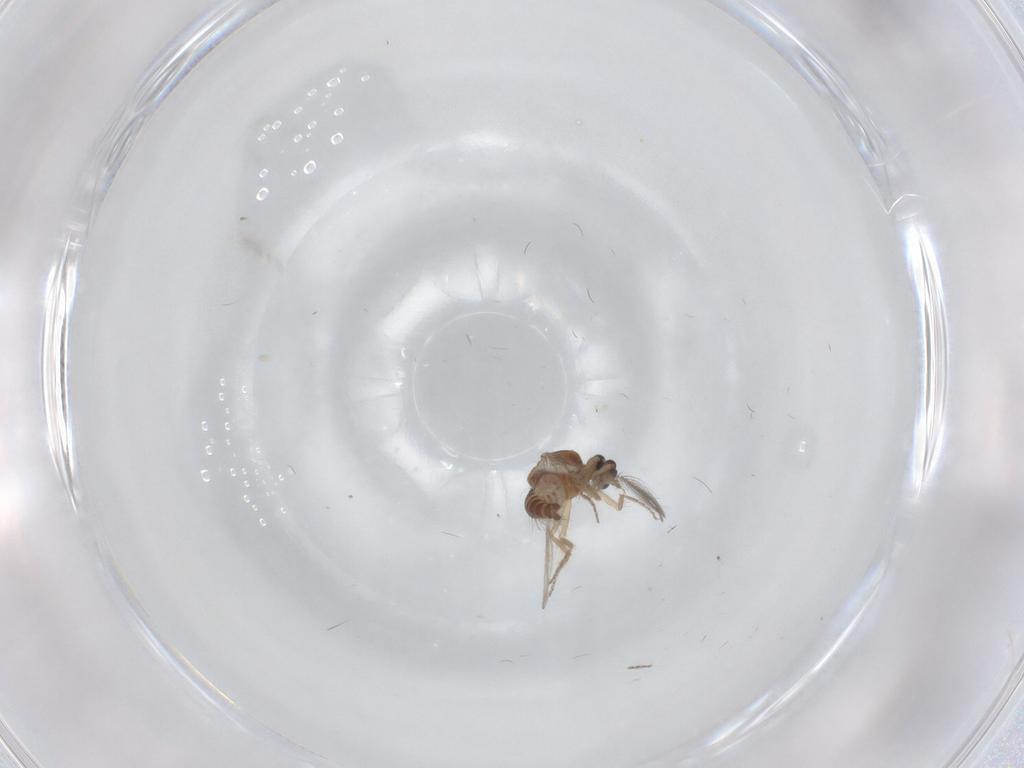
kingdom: Animalia
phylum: Arthropoda
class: Insecta
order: Diptera
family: Ceratopogonidae
